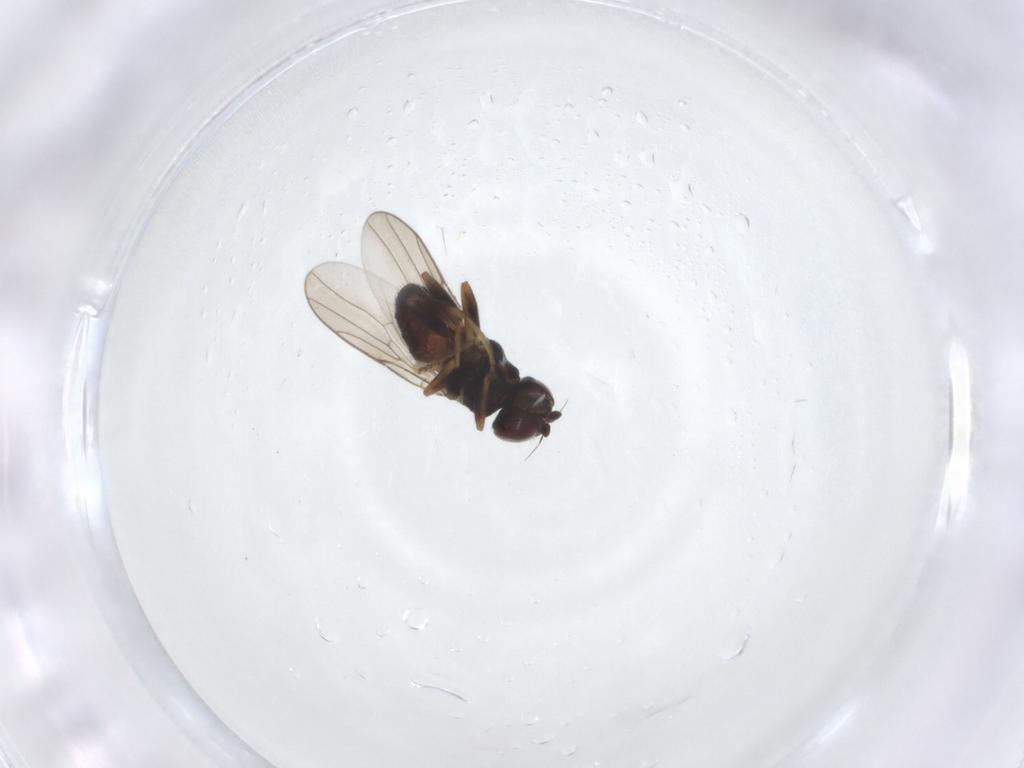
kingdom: Animalia
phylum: Arthropoda
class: Insecta
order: Diptera
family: Chloropidae
